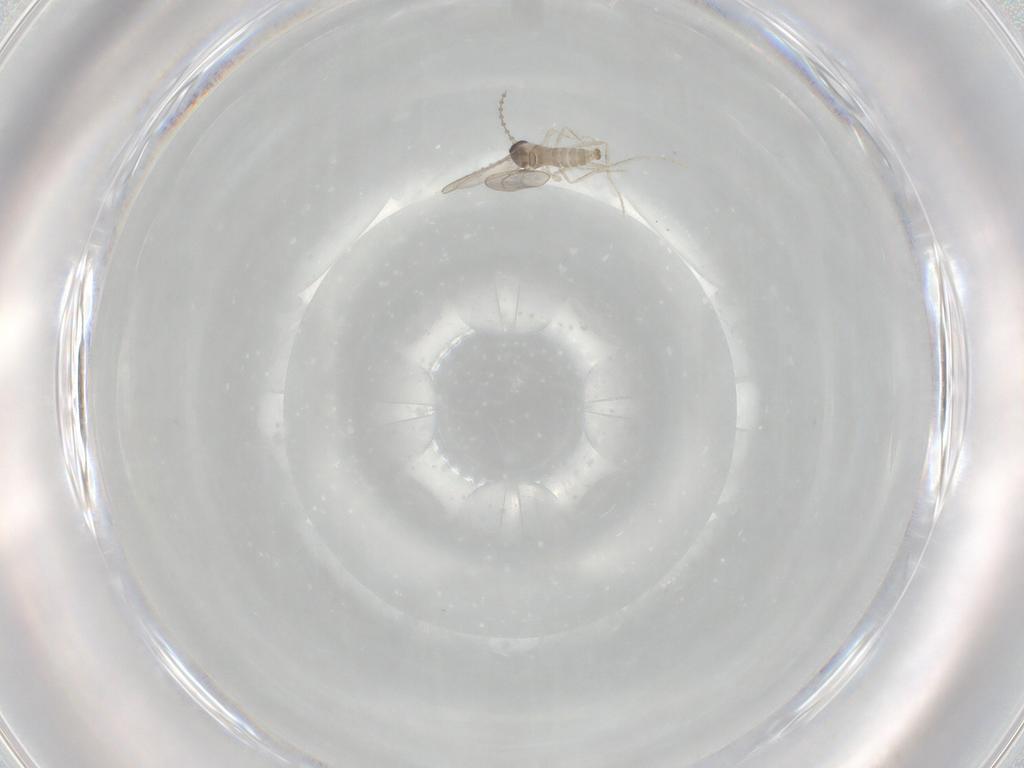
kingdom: Animalia
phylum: Arthropoda
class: Insecta
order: Diptera
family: Cecidomyiidae
